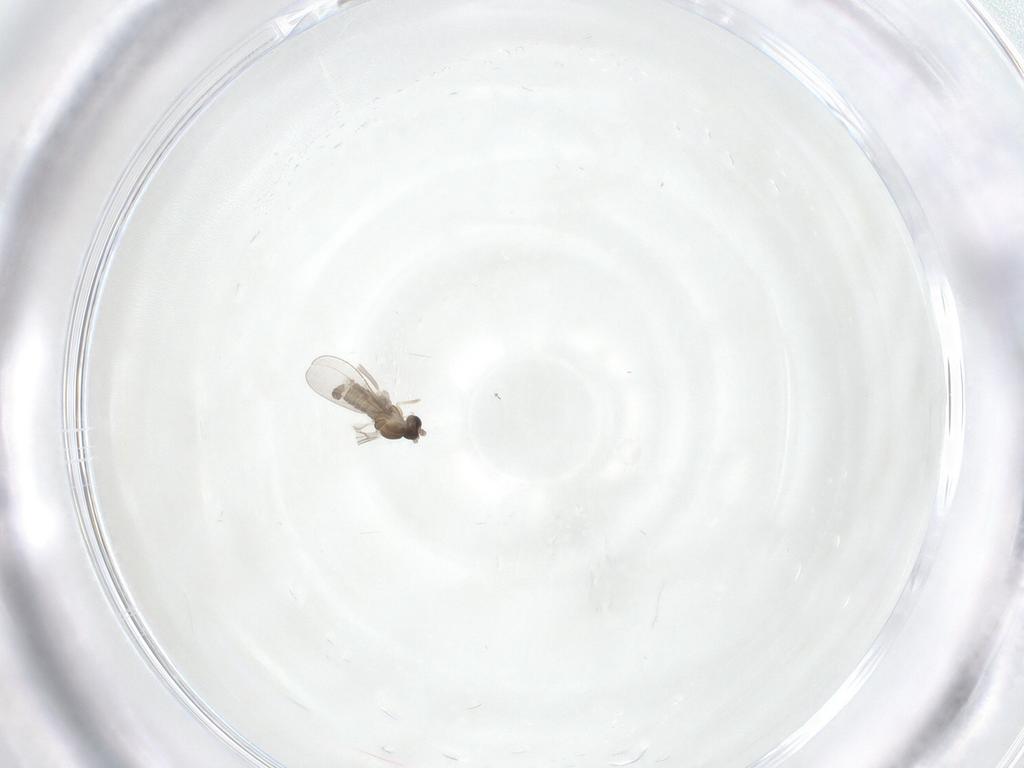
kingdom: Animalia
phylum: Arthropoda
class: Insecta
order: Diptera
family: Hybotidae
